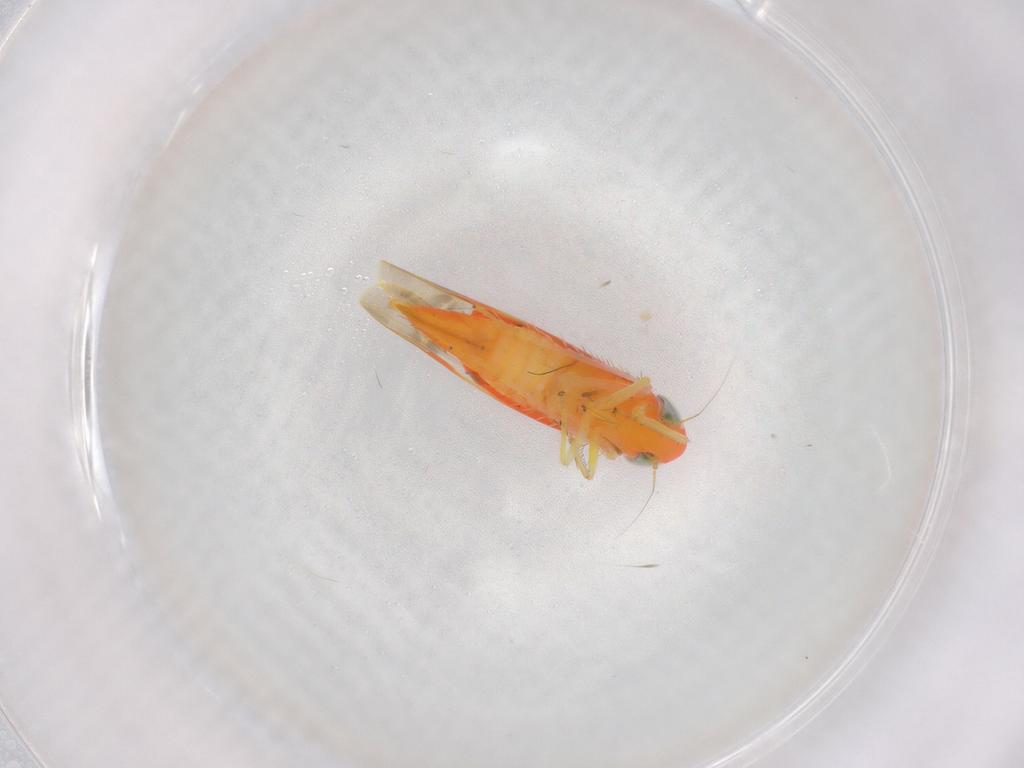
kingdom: Animalia
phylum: Arthropoda
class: Insecta
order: Hemiptera
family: Cicadellidae
